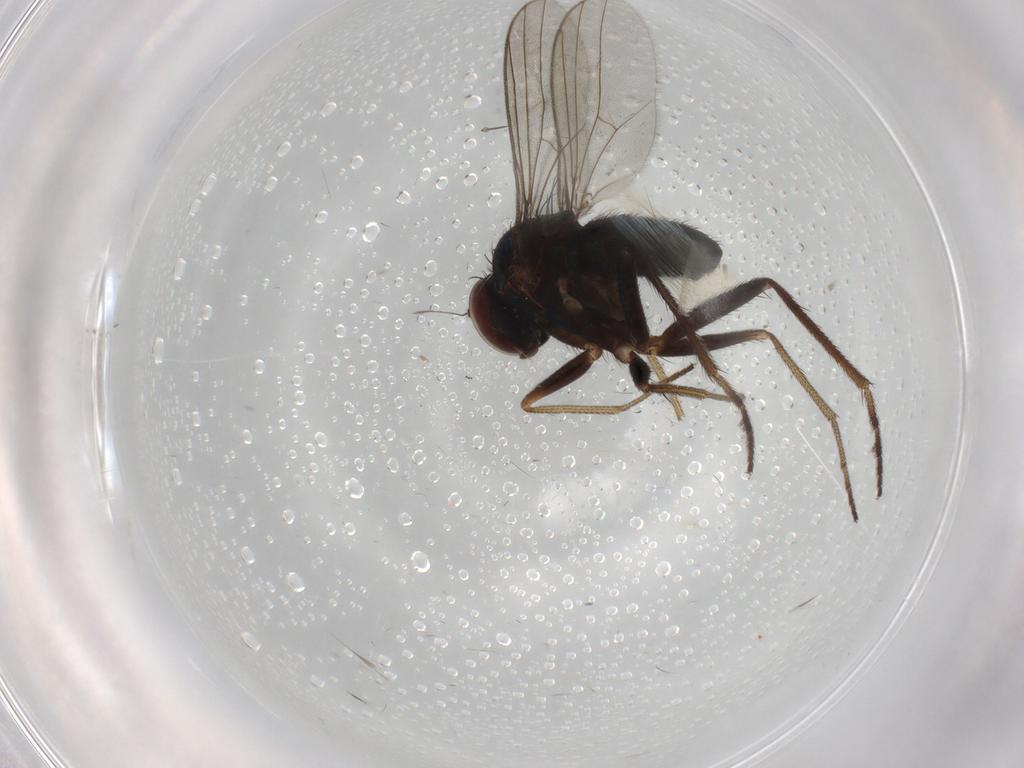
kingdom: Animalia
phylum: Arthropoda
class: Insecta
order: Diptera
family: Dolichopodidae
